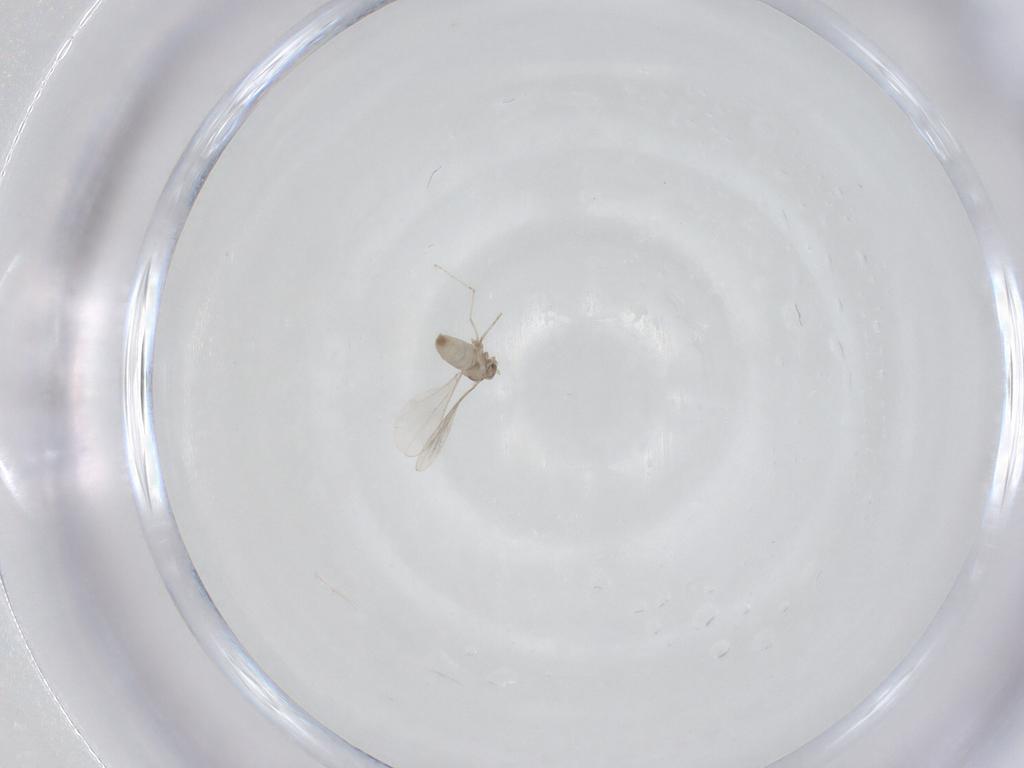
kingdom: Animalia
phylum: Arthropoda
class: Insecta
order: Diptera
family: Cecidomyiidae
